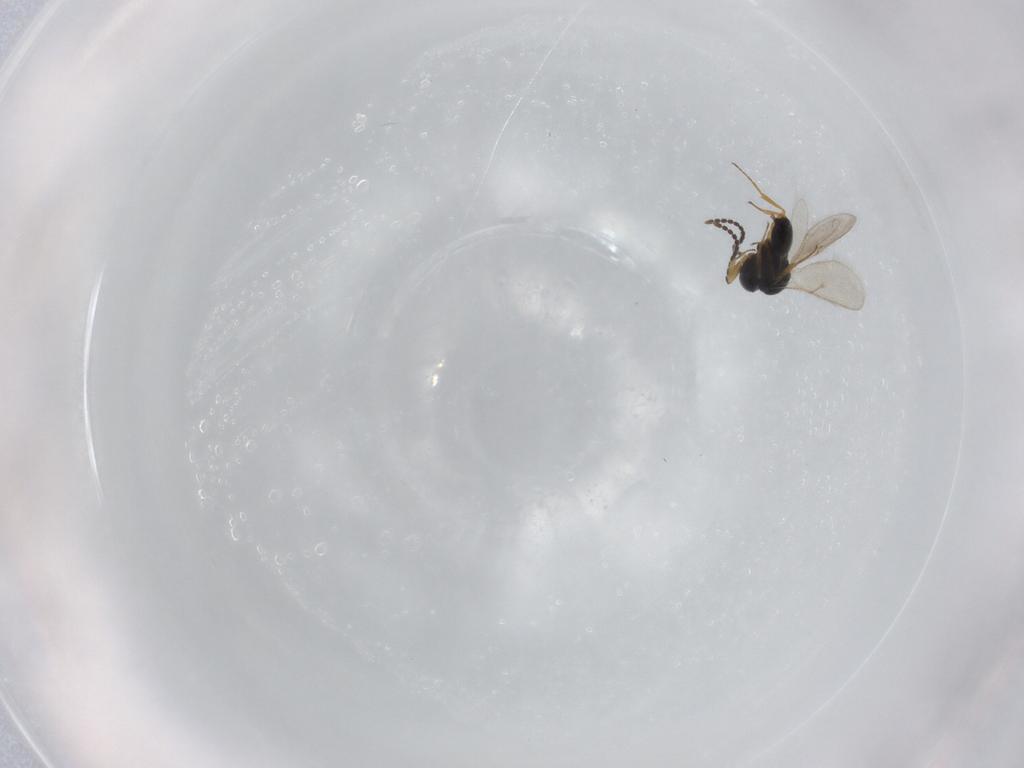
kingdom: Animalia
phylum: Arthropoda
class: Insecta
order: Hymenoptera
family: Scelionidae
